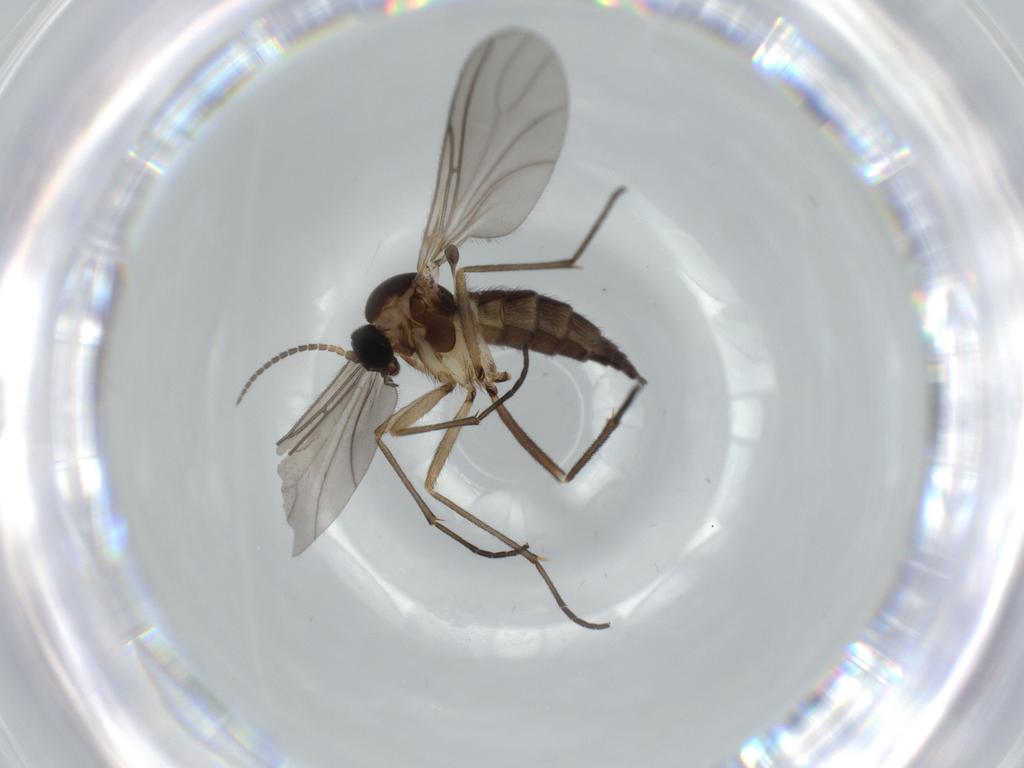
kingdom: Animalia
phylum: Arthropoda
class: Insecta
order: Diptera
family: Sciaridae
